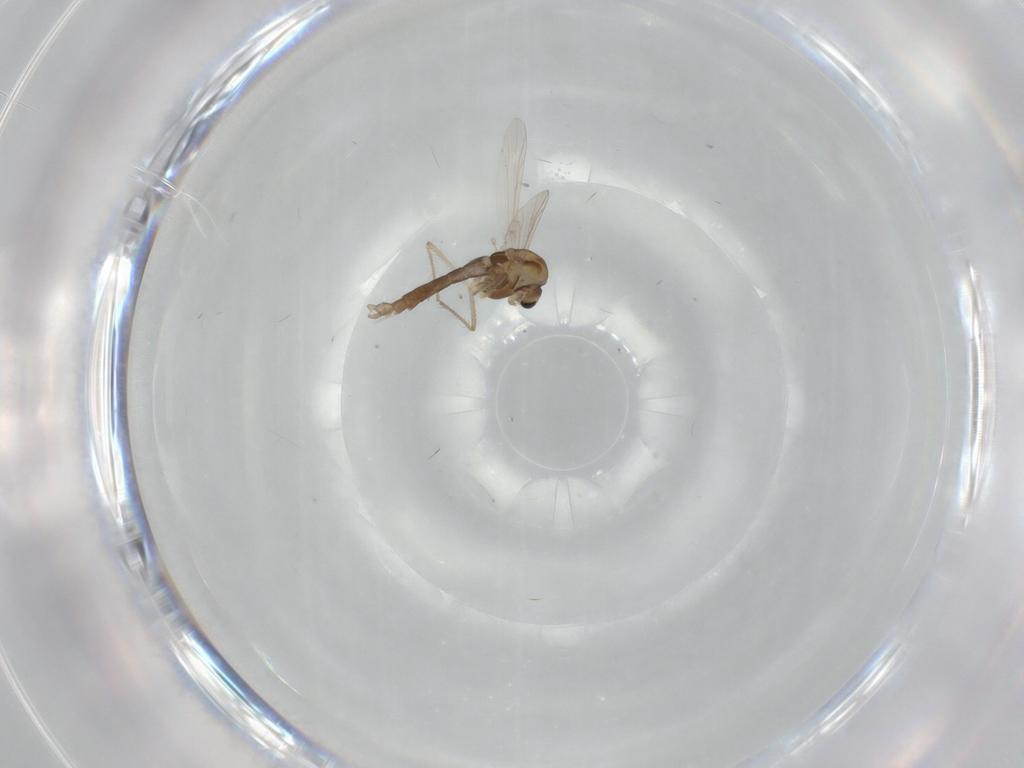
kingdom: Animalia
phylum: Arthropoda
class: Insecta
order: Diptera
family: Chironomidae
